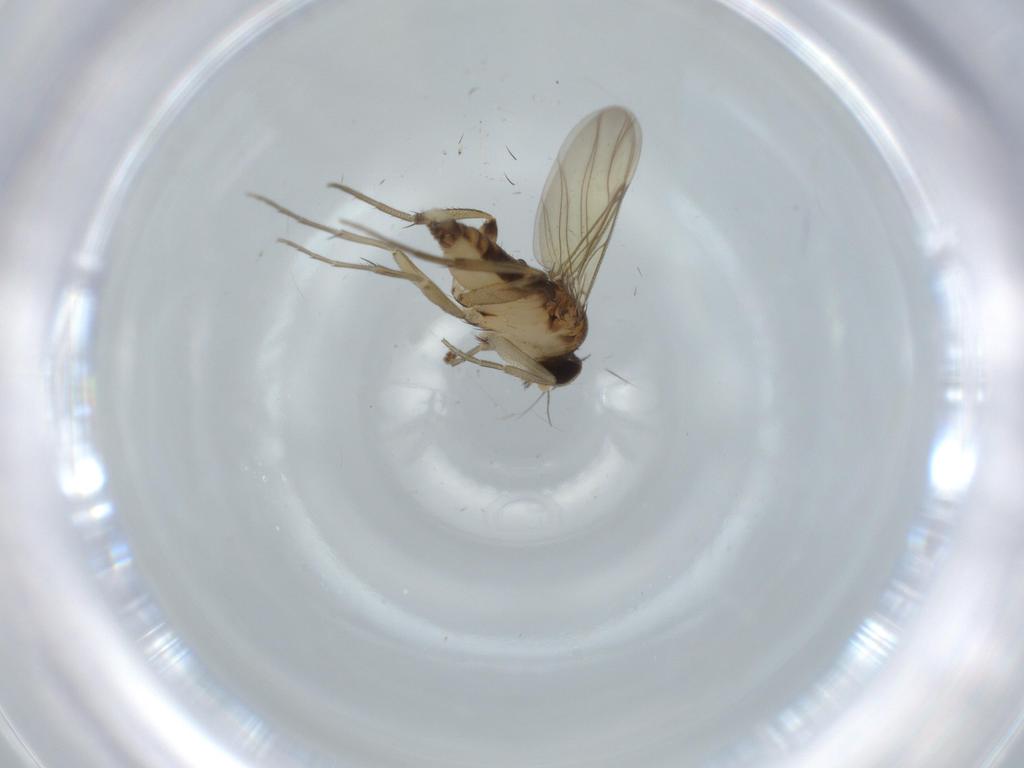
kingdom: Animalia
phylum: Arthropoda
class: Insecta
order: Diptera
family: Phoridae
